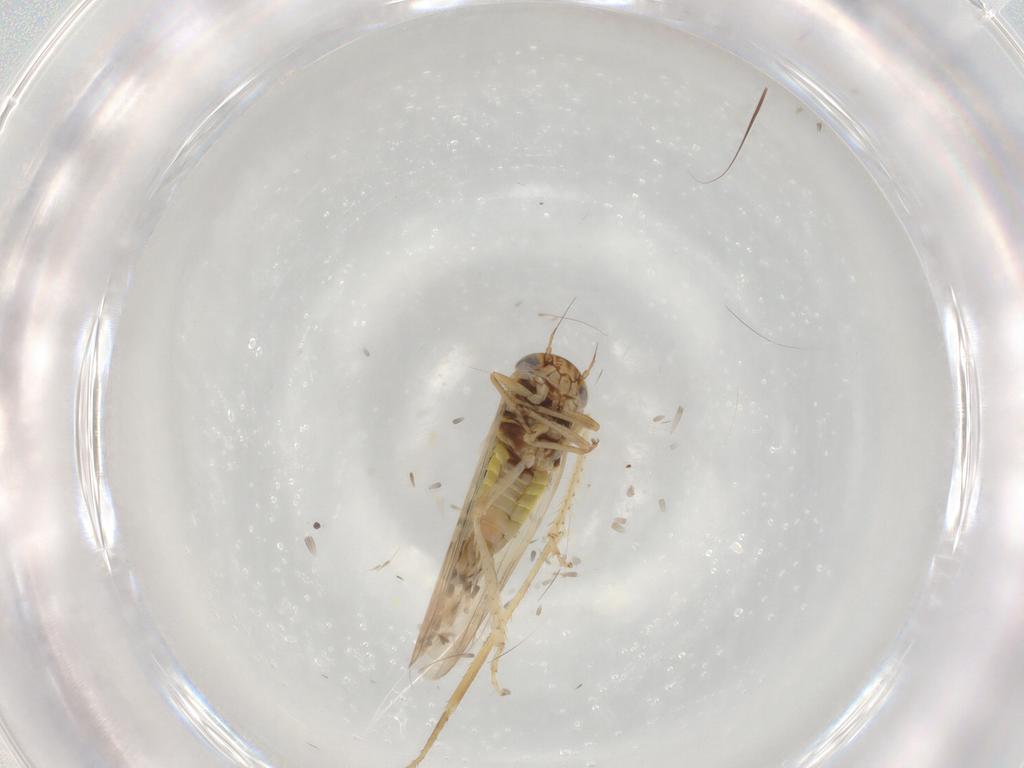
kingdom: Animalia
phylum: Arthropoda
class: Insecta
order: Hemiptera
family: Cicadellidae
